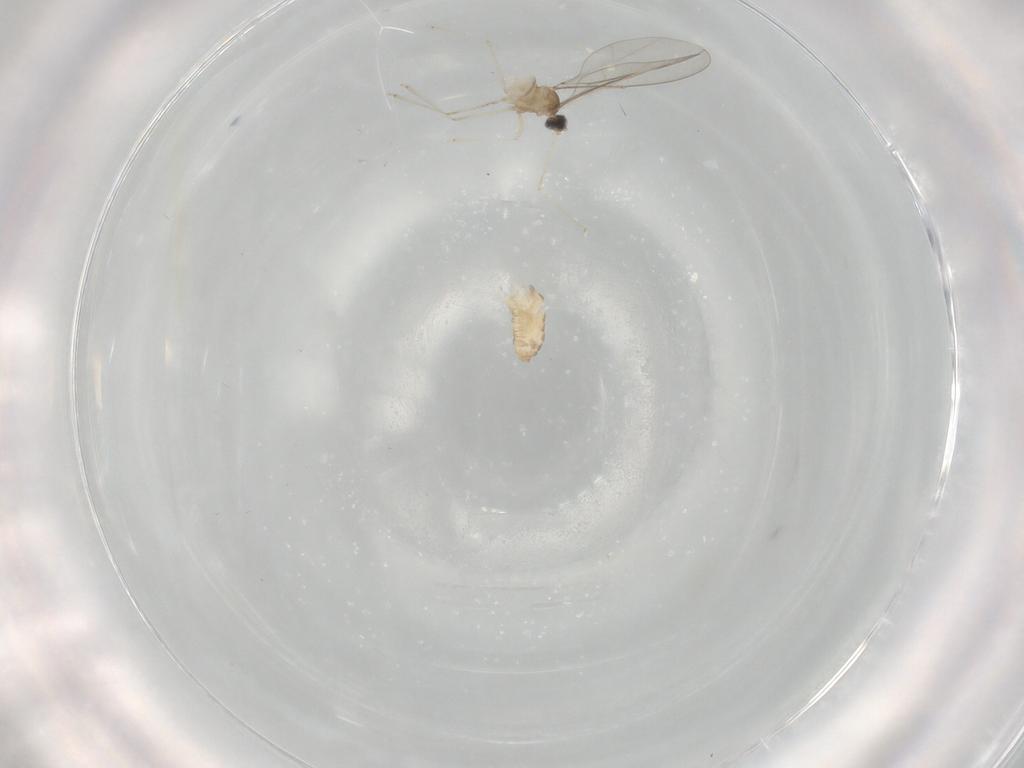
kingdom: Animalia
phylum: Arthropoda
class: Insecta
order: Diptera
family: Cecidomyiidae
